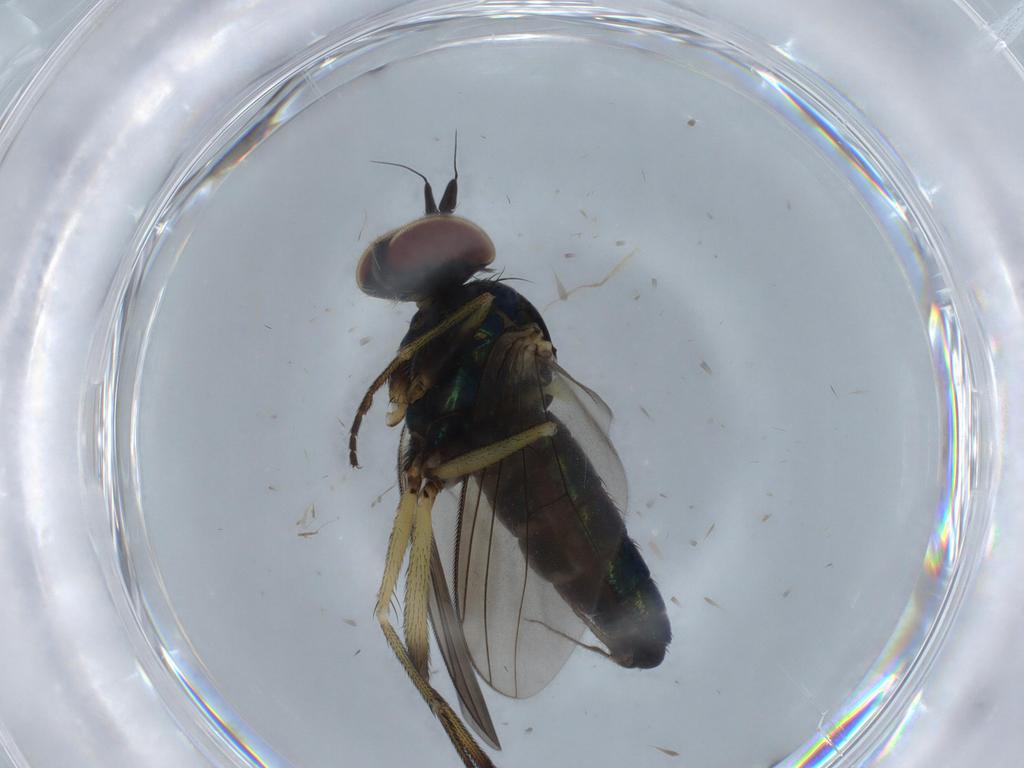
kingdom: Animalia
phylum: Arthropoda
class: Insecta
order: Diptera
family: Dolichopodidae
